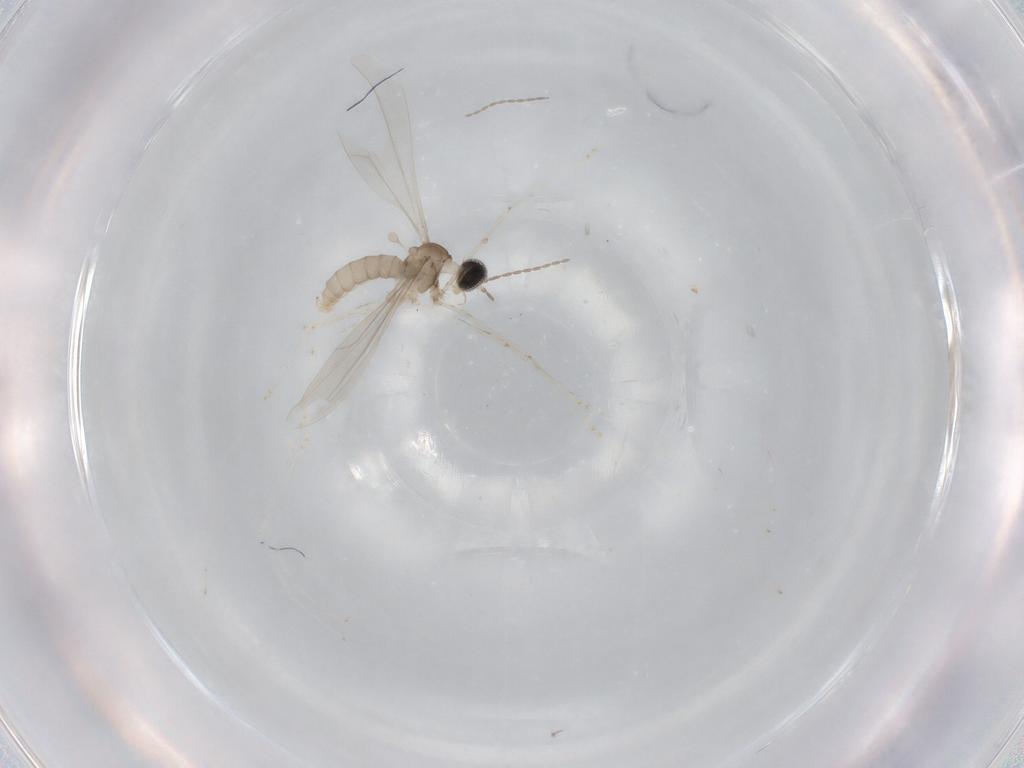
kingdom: Animalia
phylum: Arthropoda
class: Insecta
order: Diptera
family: Cecidomyiidae
